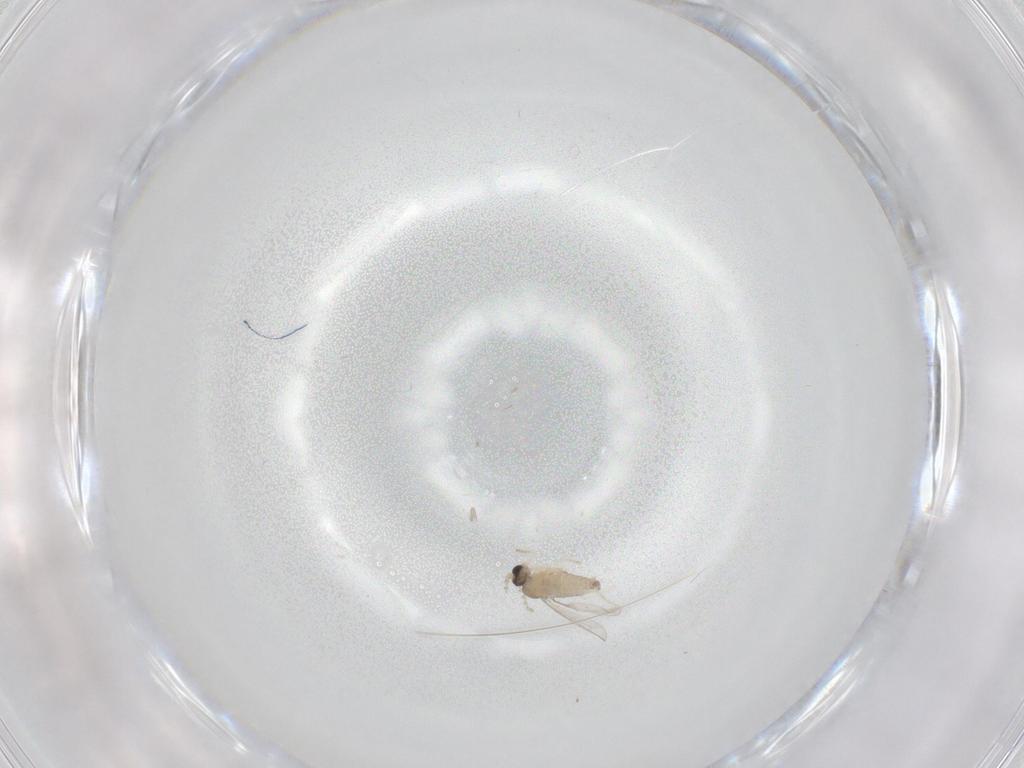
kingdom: Animalia
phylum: Arthropoda
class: Insecta
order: Diptera
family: Cecidomyiidae
